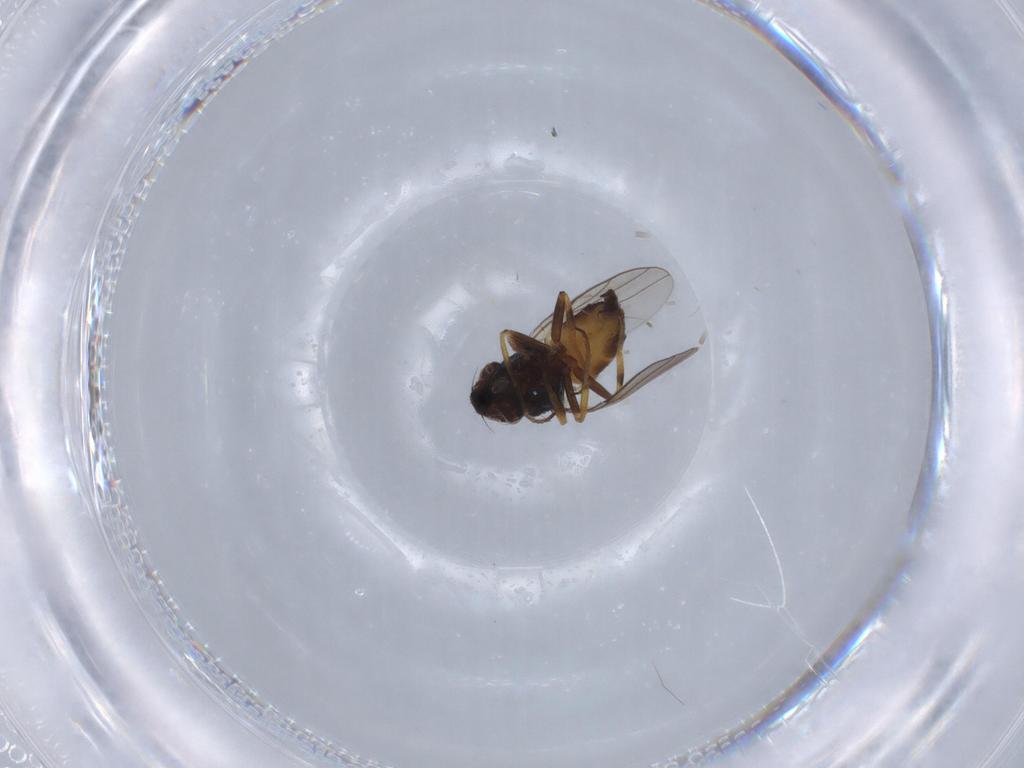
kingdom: Animalia
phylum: Arthropoda
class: Insecta
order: Diptera
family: Chloropidae
